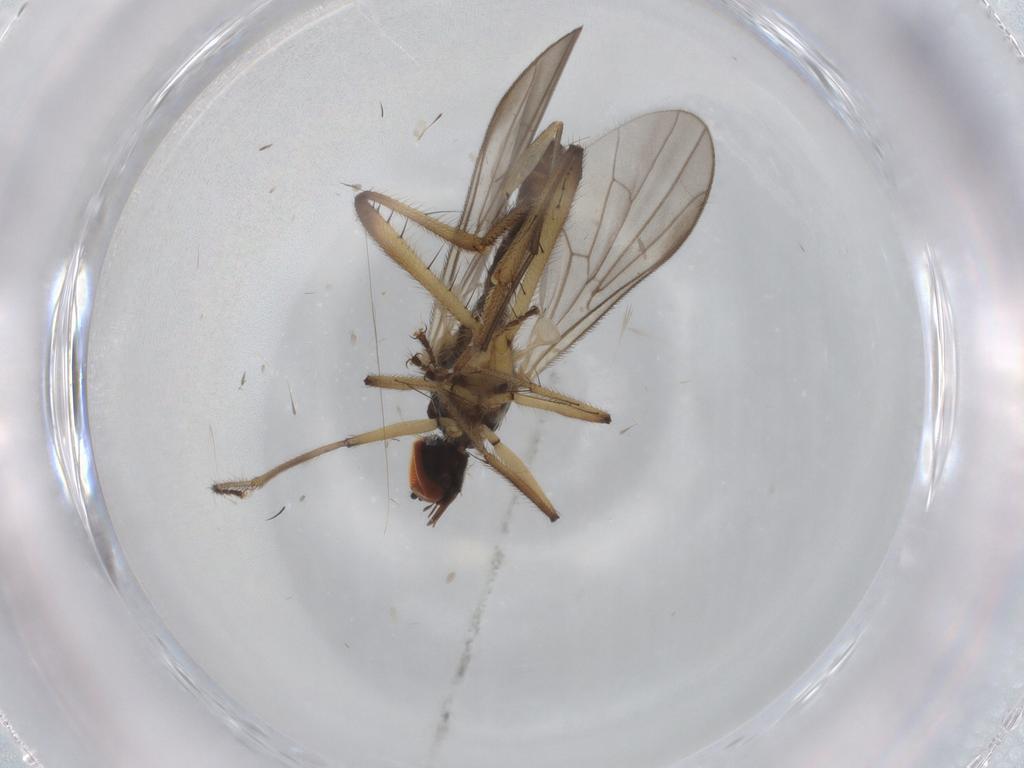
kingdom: Animalia
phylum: Arthropoda
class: Insecta
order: Diptera
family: Hybotidae
